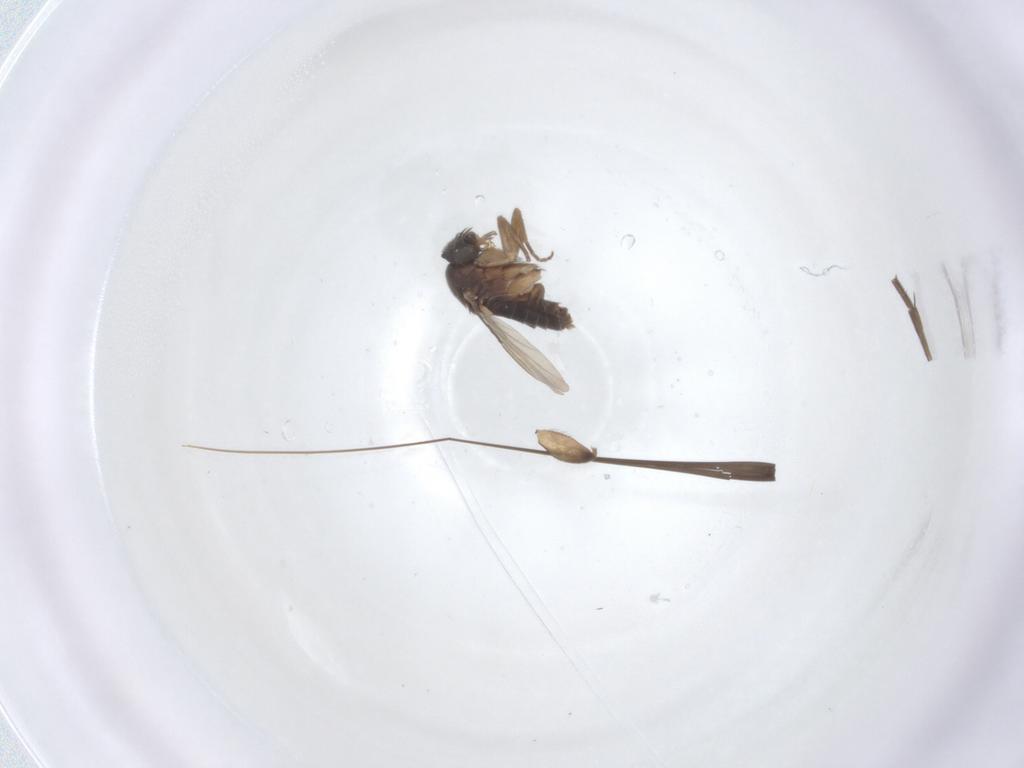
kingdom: Animalia
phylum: Arthropoda
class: Insecta
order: Diptera
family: Phoridae
